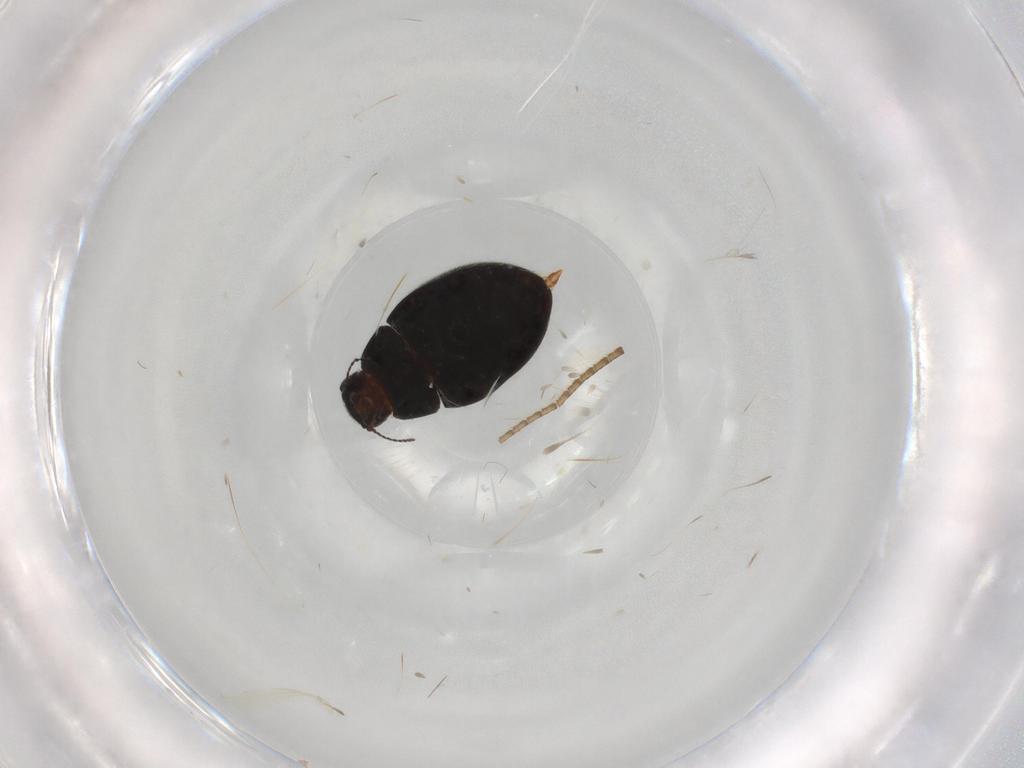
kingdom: Animalia
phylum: Arthropoda
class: Insecta
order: Coleoptera
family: Limnichidae
